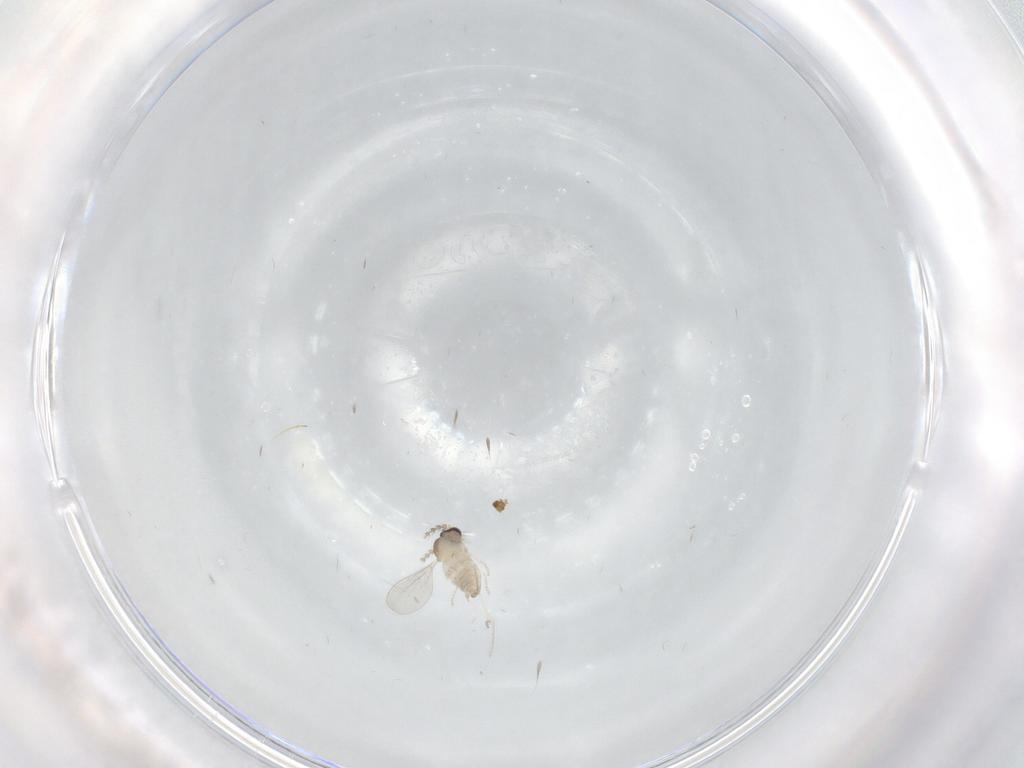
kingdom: Animalia
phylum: Arthropoda
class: Insecta
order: Diptera
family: Cecidomyiidae
